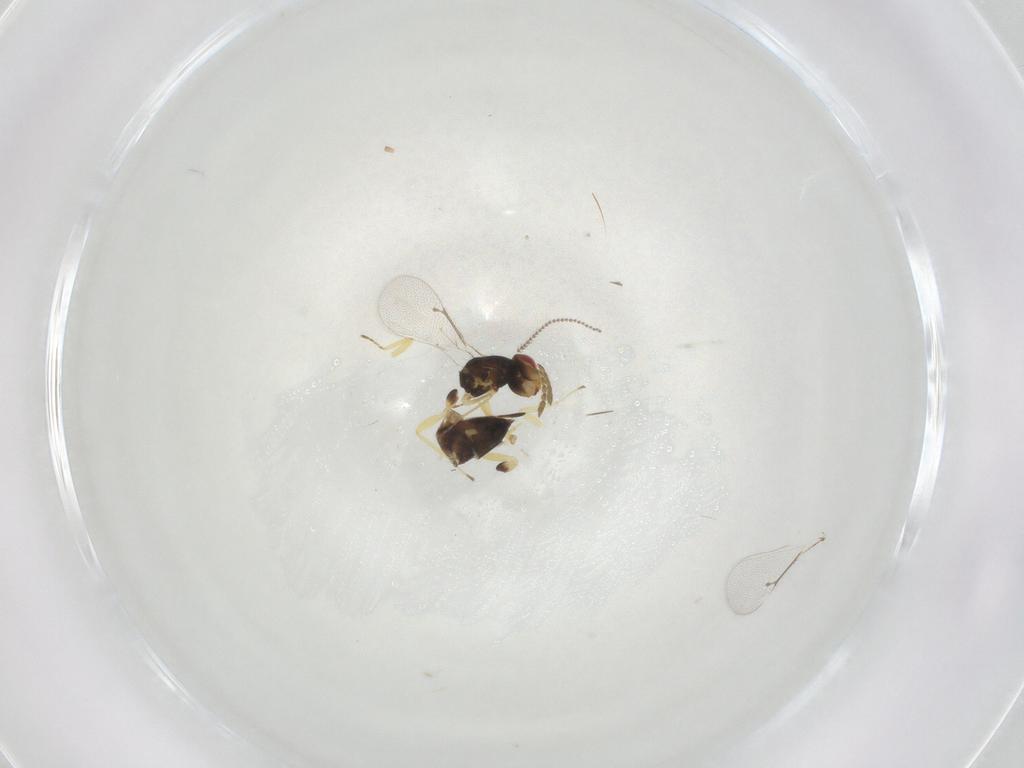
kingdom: Animalia
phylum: Arthropoda
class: Insecta
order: Hymenoptera
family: Eulophidae
